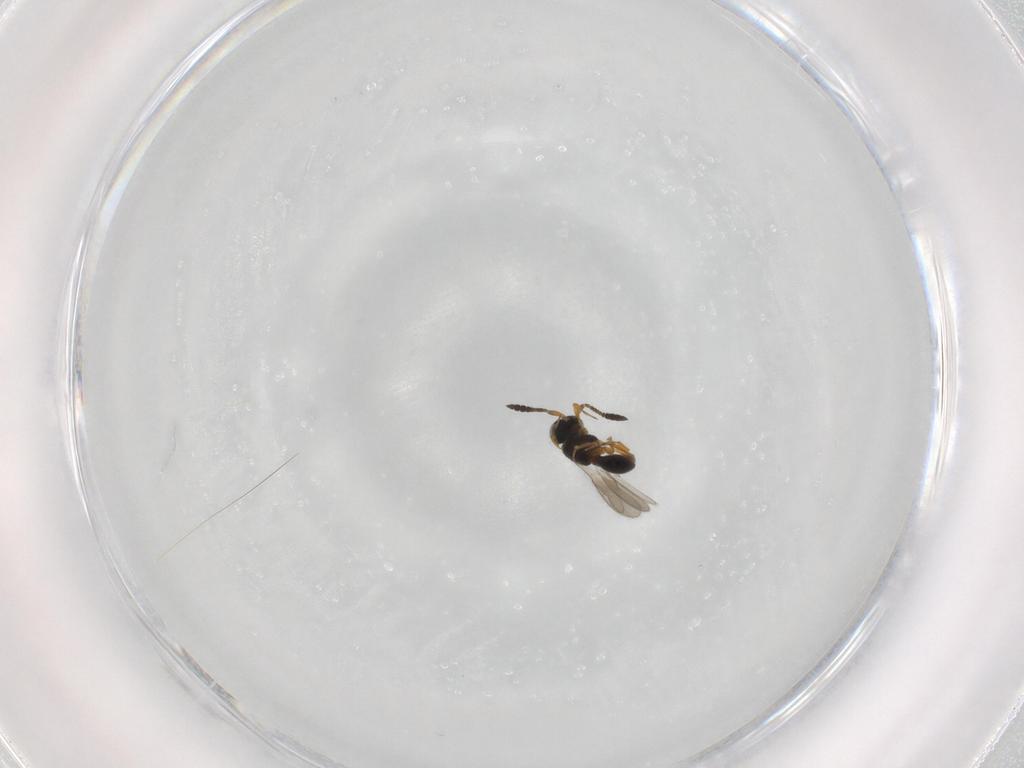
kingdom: Animalia
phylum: Arthropoda
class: Insecta
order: Hymenoptera
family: Scelionidae
